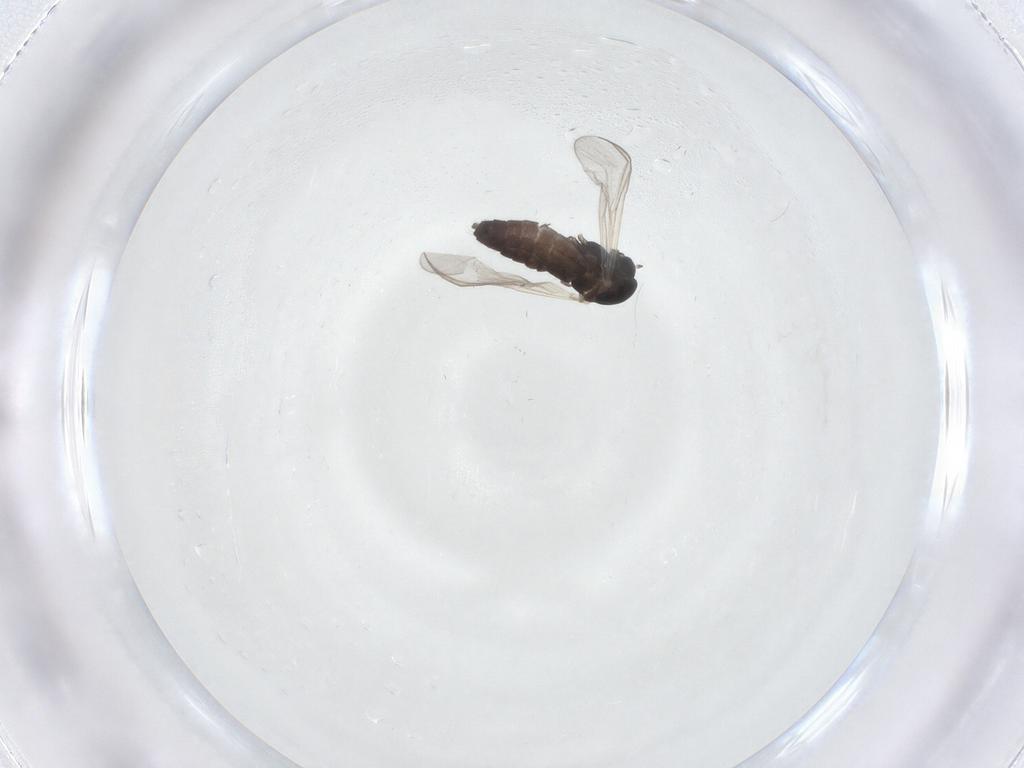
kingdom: Animalia
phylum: Arthropoda
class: Insecta
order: Diptera
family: Chironomidae
